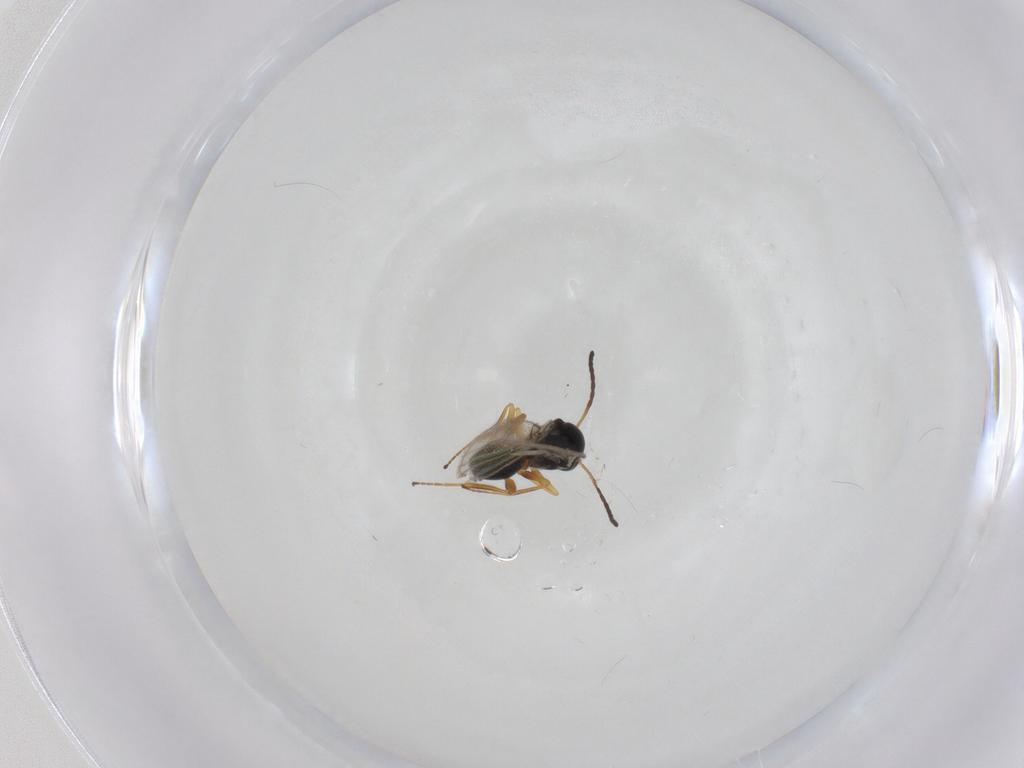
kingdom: Animalia
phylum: Arthropoda
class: Insecta
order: Hymenoptera
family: Figitidae
